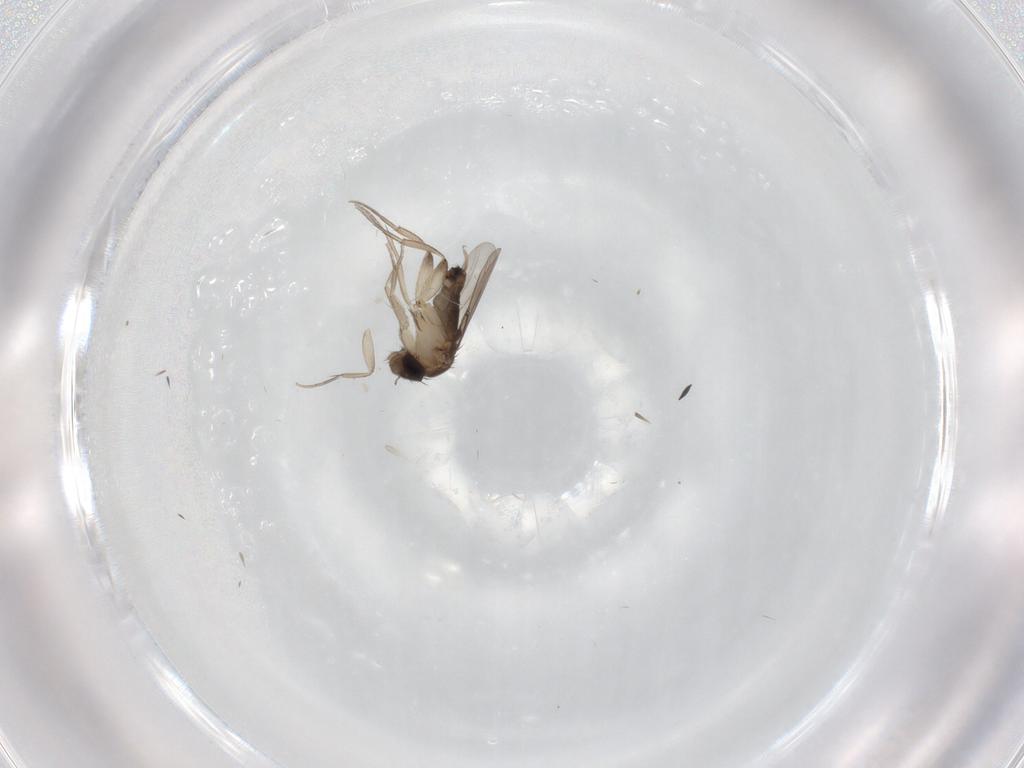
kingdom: Animalia
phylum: Arthropoda
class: Insecta
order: Diptera
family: Phoridae
